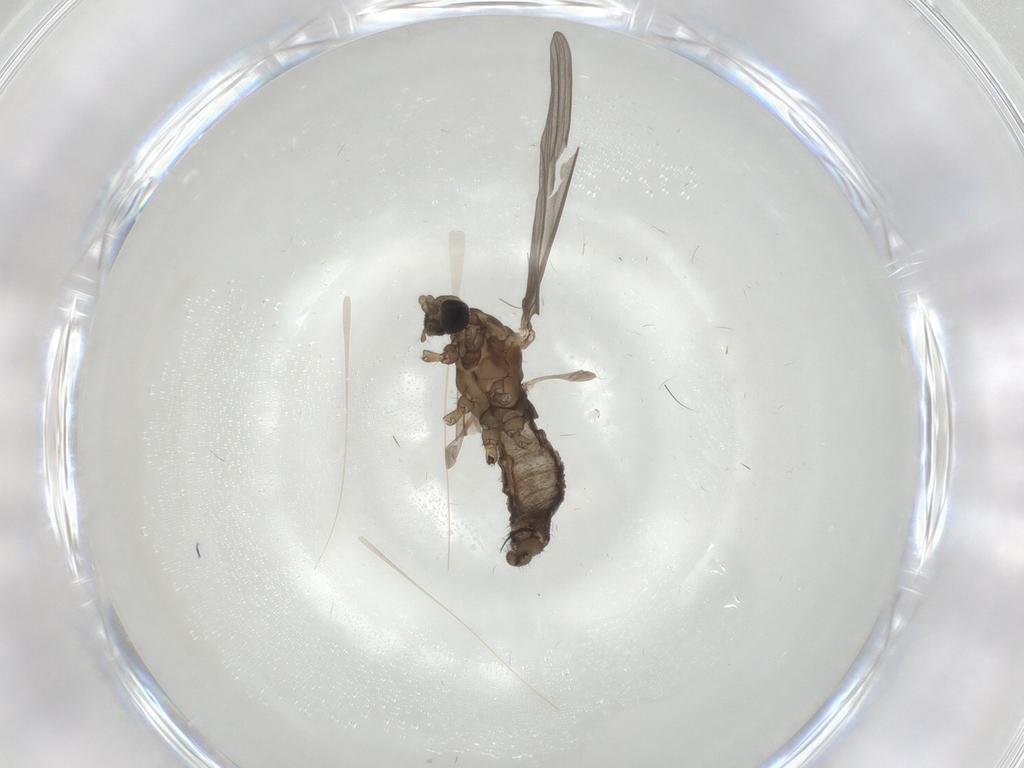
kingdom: Animalia
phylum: Arthropoda
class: Insecta
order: Diptera
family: Limoniidae
